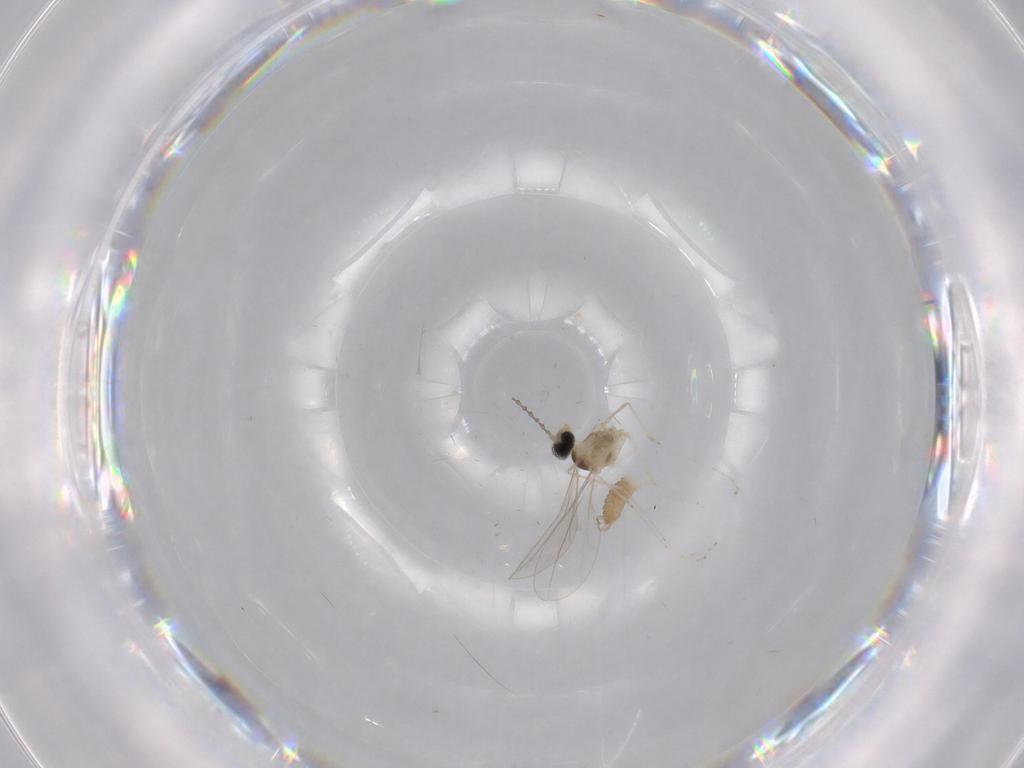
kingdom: Animalia
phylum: Arthropoda
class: Insecta
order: Diptera
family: Cecidomyiidae
